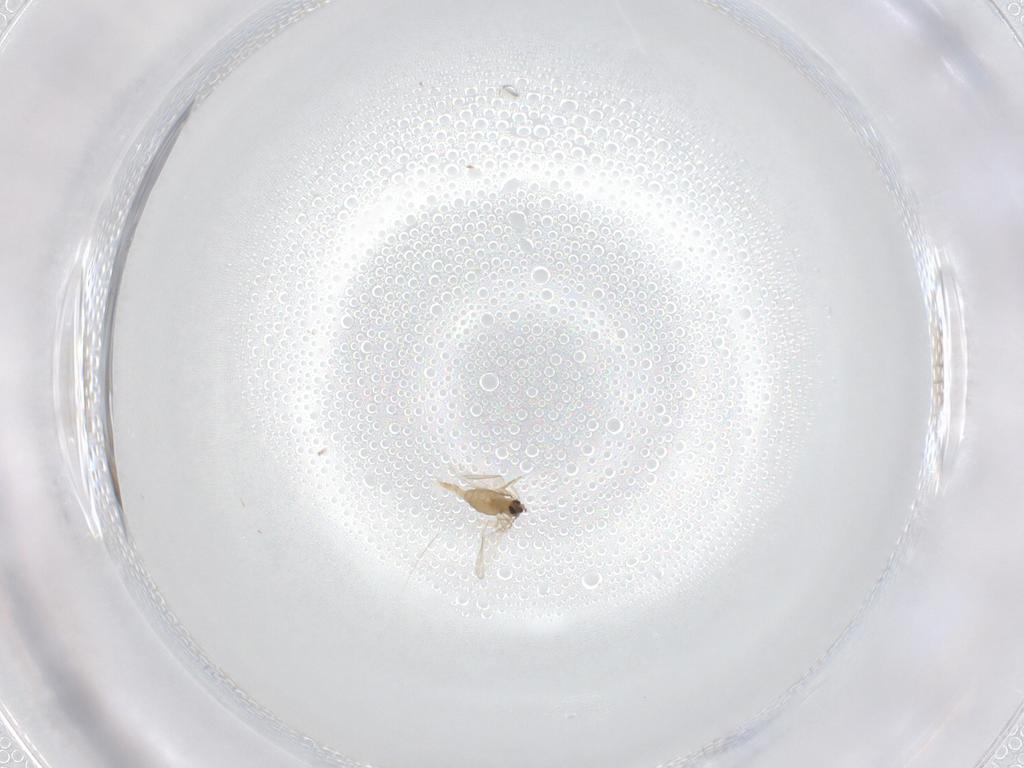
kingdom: Animalia
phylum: Arthropoda
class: Insecta
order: Diptera
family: Cecidomyiidae
